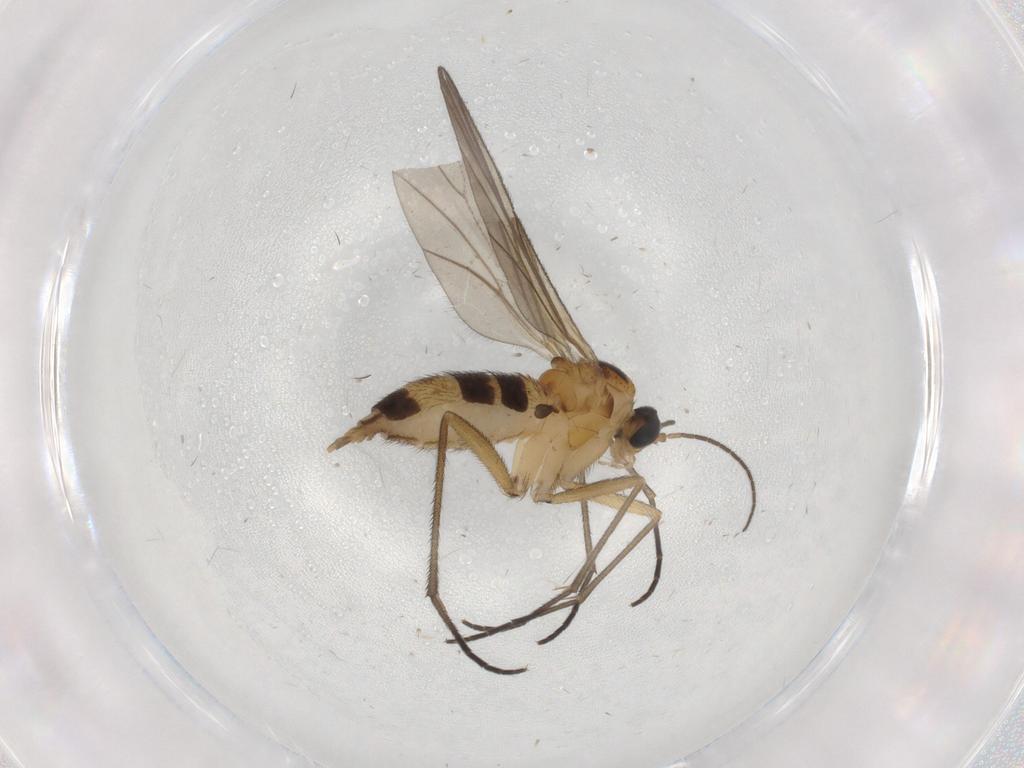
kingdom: Animalia
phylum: Arthropoda
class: Insecta
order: Diptera
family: Sciaridae
